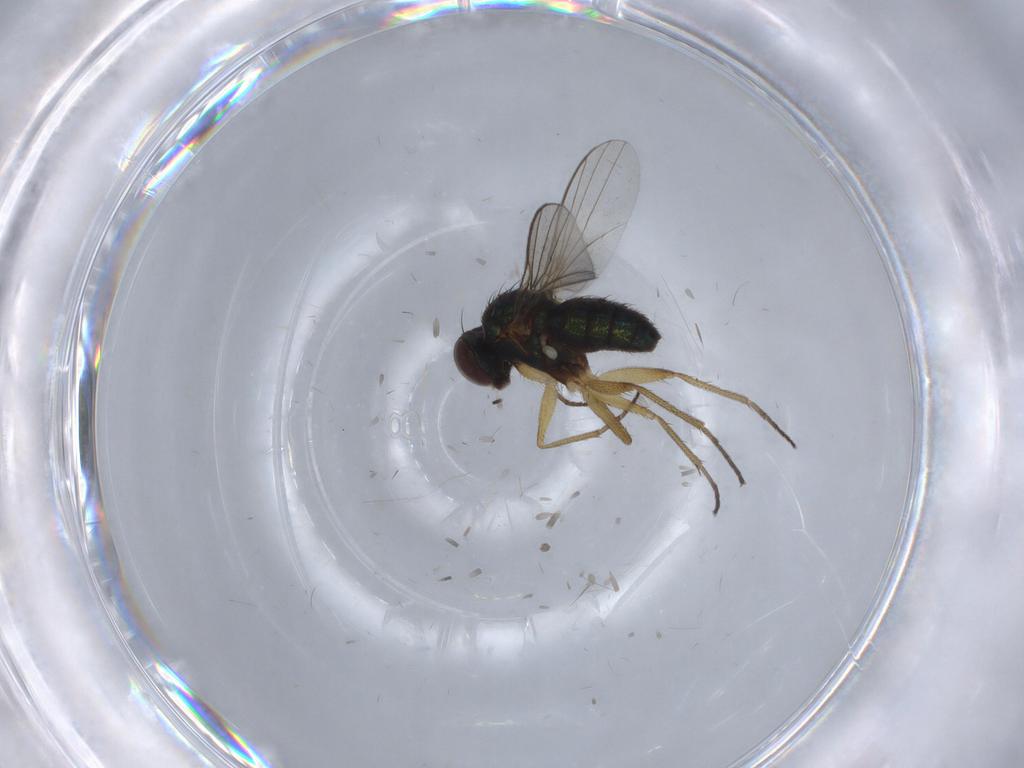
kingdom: Animalia
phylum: Arthropoda
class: Insecta
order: Diptera
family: Dolichopodidae
